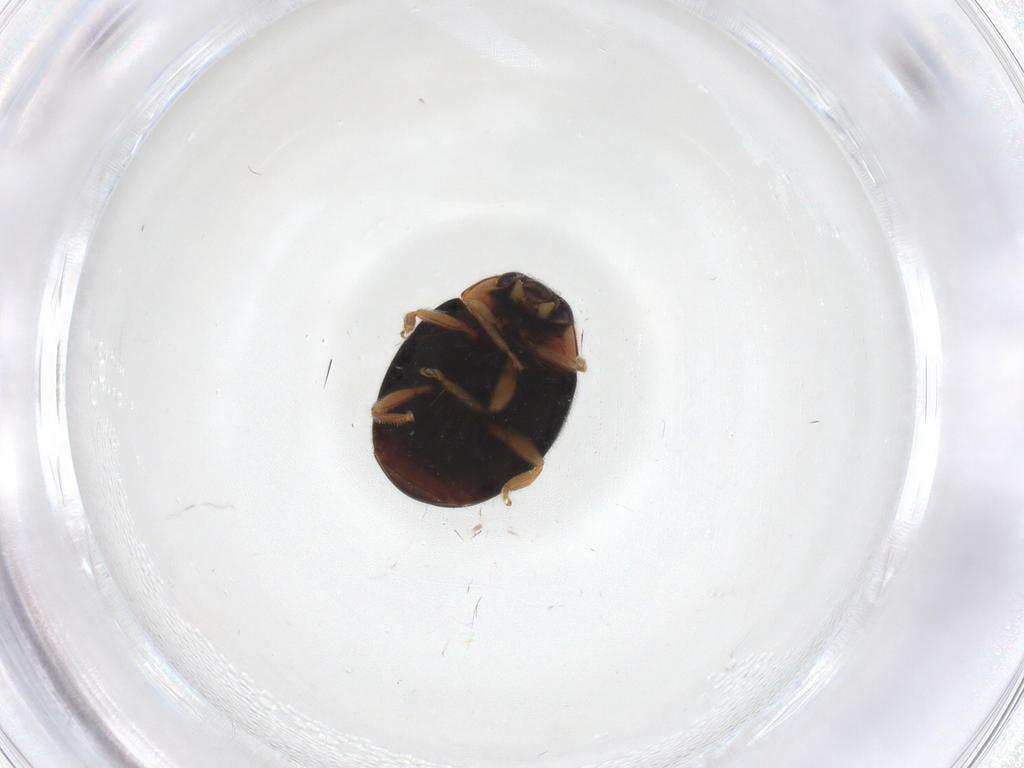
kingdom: Animalia
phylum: Arthropoda
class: Insecta
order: Coleoptera
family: Coccinellidae
